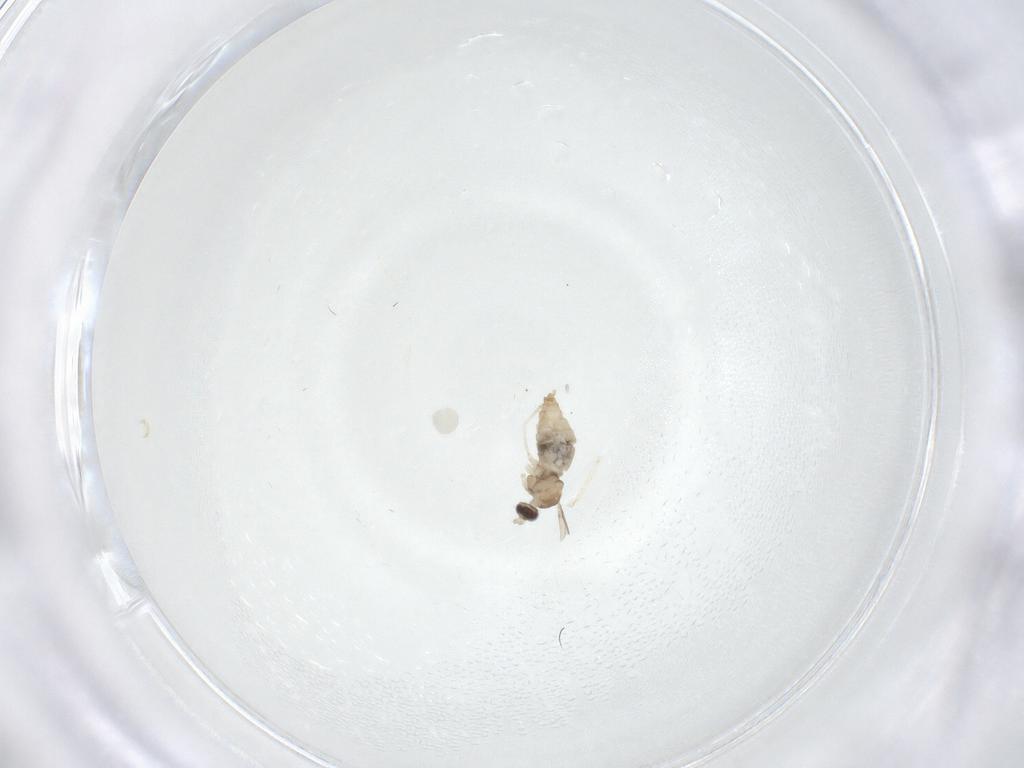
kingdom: Animalia
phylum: Arthropoda
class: Insecta
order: Diptera
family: Cecidomyiidae
